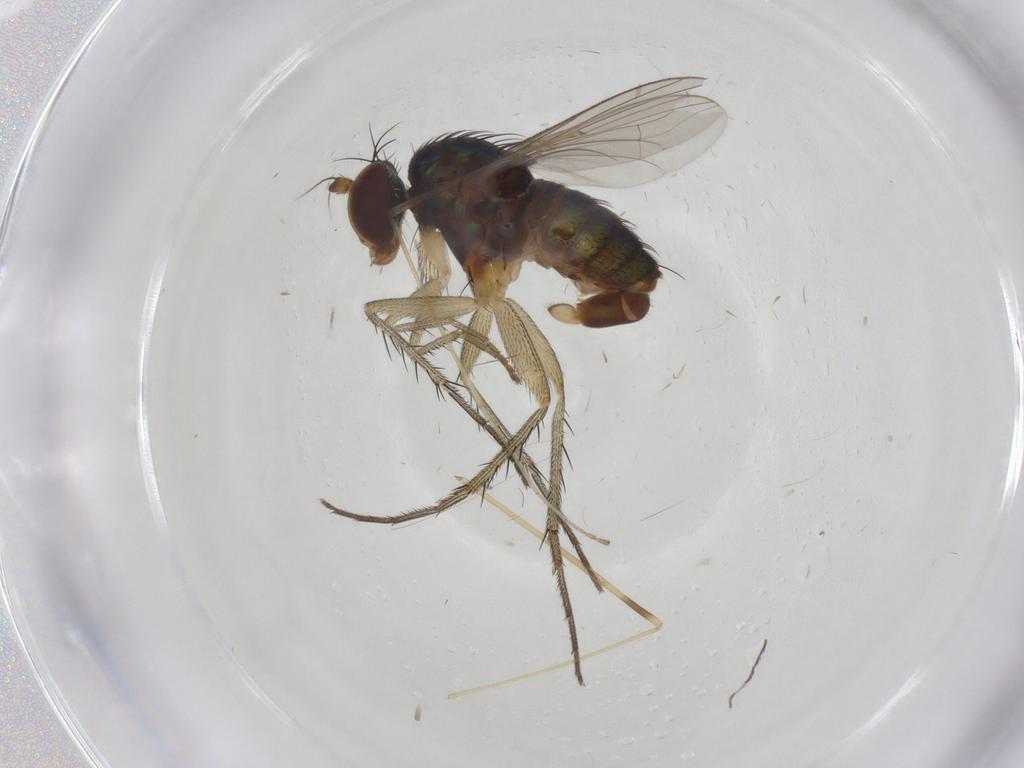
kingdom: Animalia
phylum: Arthropoda
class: Insecta
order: Diptera
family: Dolichopodidae
